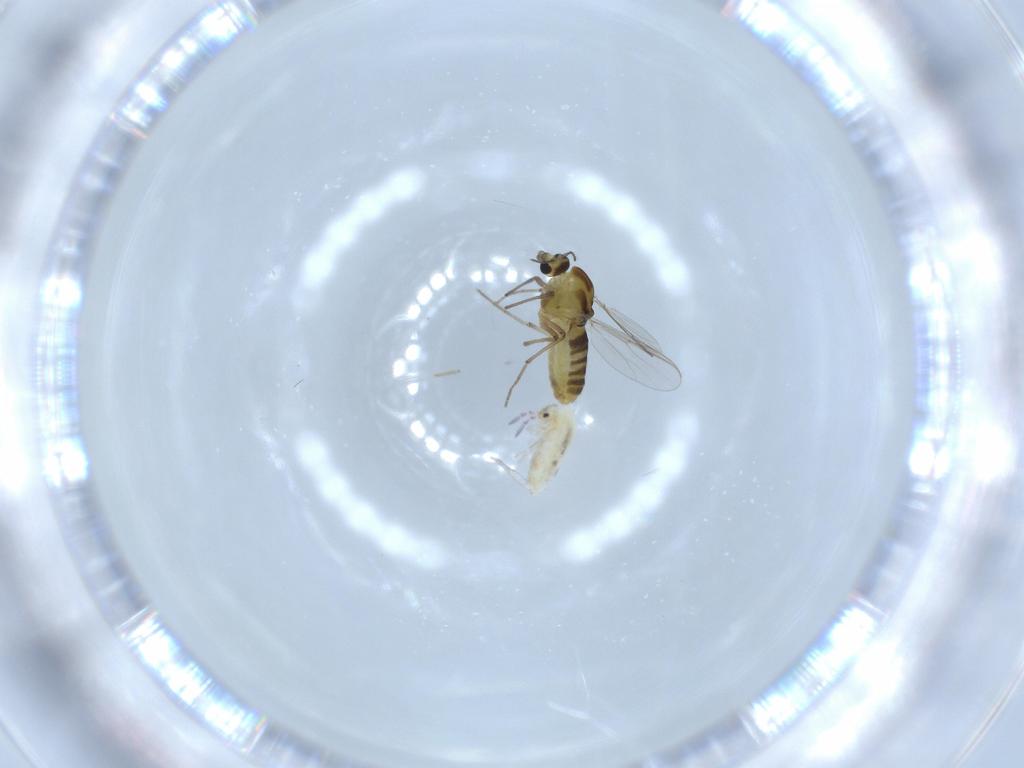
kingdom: Animalia
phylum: Arthropoda
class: Insecta
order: Diptera
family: Chironomidae
